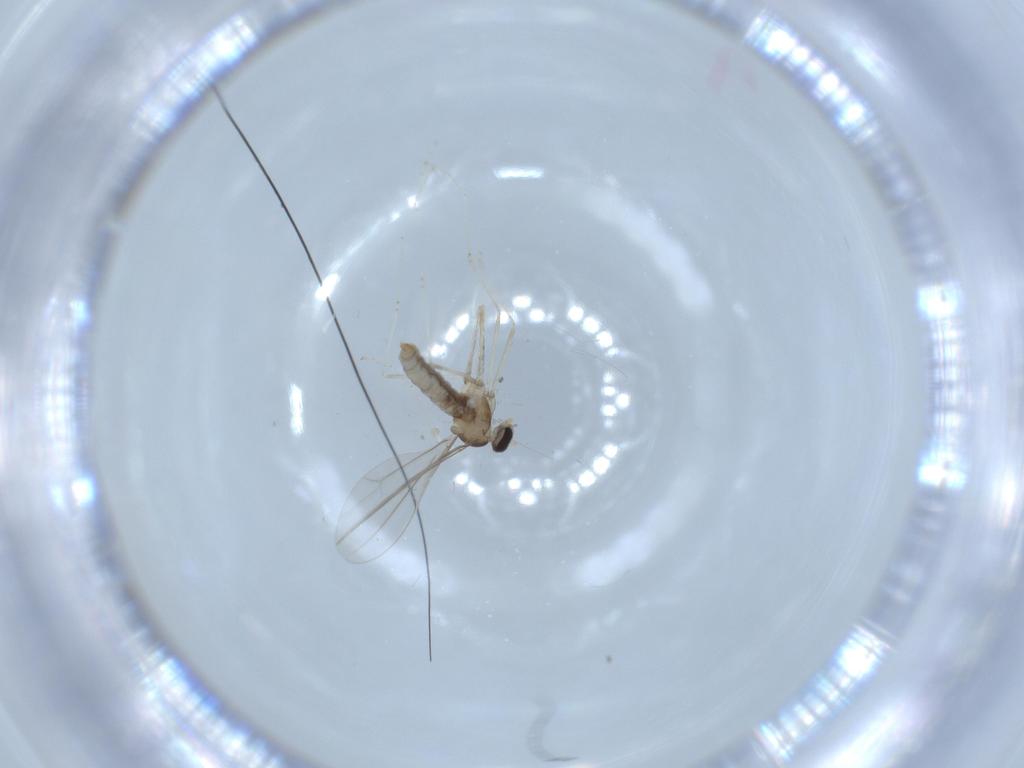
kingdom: Animalia
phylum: Arthropoda
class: Insecta
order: Diptera
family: Cecidomyiidae
